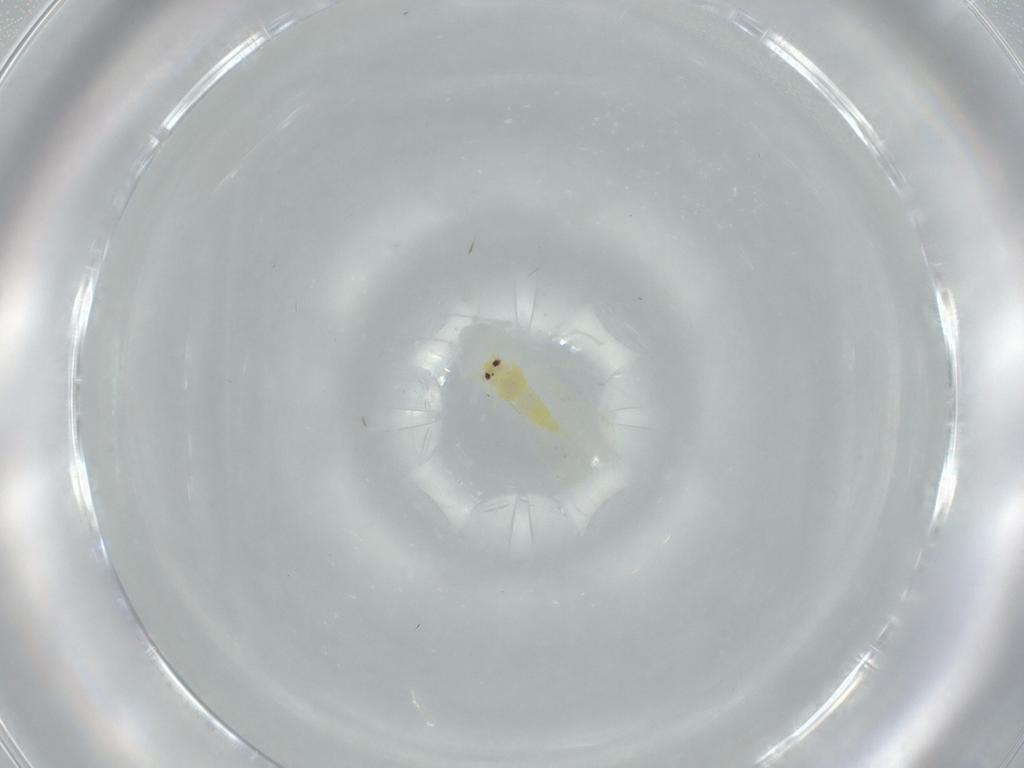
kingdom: Animalia
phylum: Arthropoda
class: Insecta
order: Hemiptera
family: Aleyrodidae
